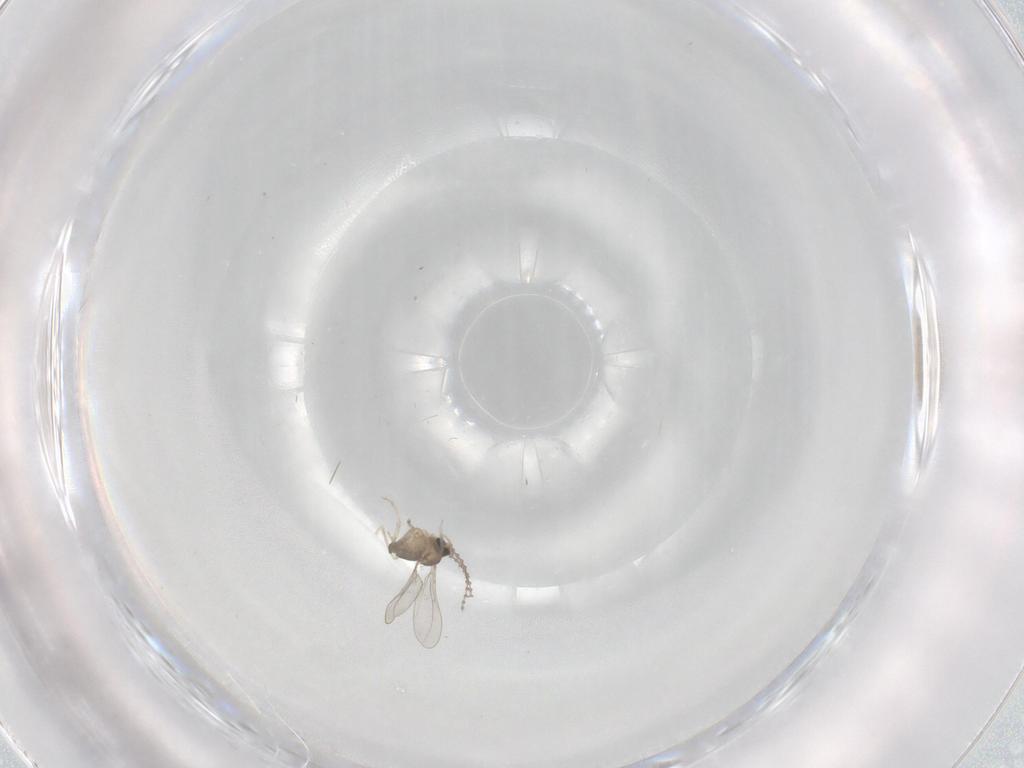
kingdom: Animalia
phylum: Arthropoda
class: Insecta
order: Diptera
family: Cecidomyiidae
